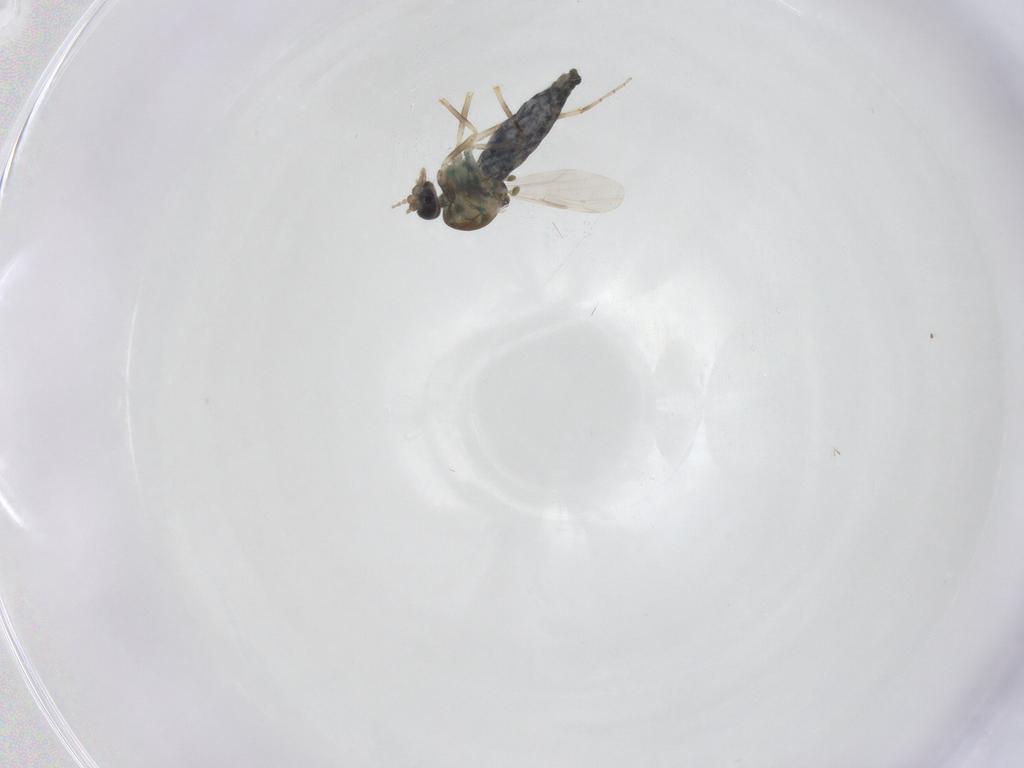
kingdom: Animalia
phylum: Arthropoda
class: Insecta
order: Diptera
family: Ceratopogonidae
